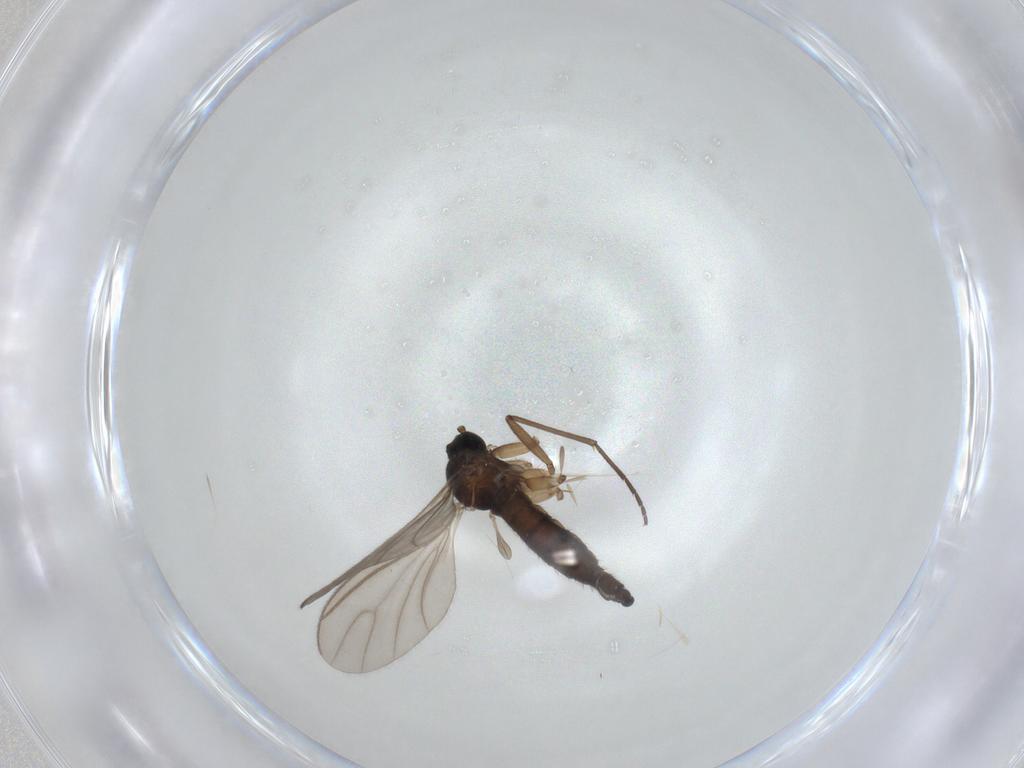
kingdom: Animalia
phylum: Arthropoda
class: Insecta
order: Diptera
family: Sciaridae
